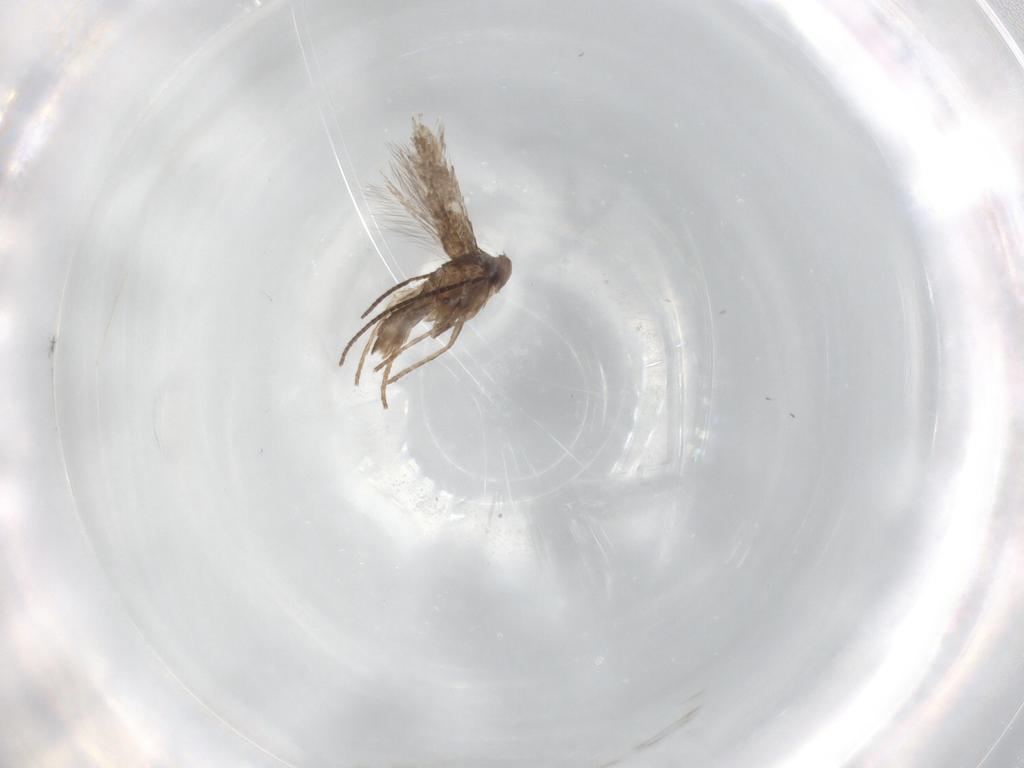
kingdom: Animalia
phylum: Arthropoda
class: Insecta
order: Lepidoptera
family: Gracillariidae
